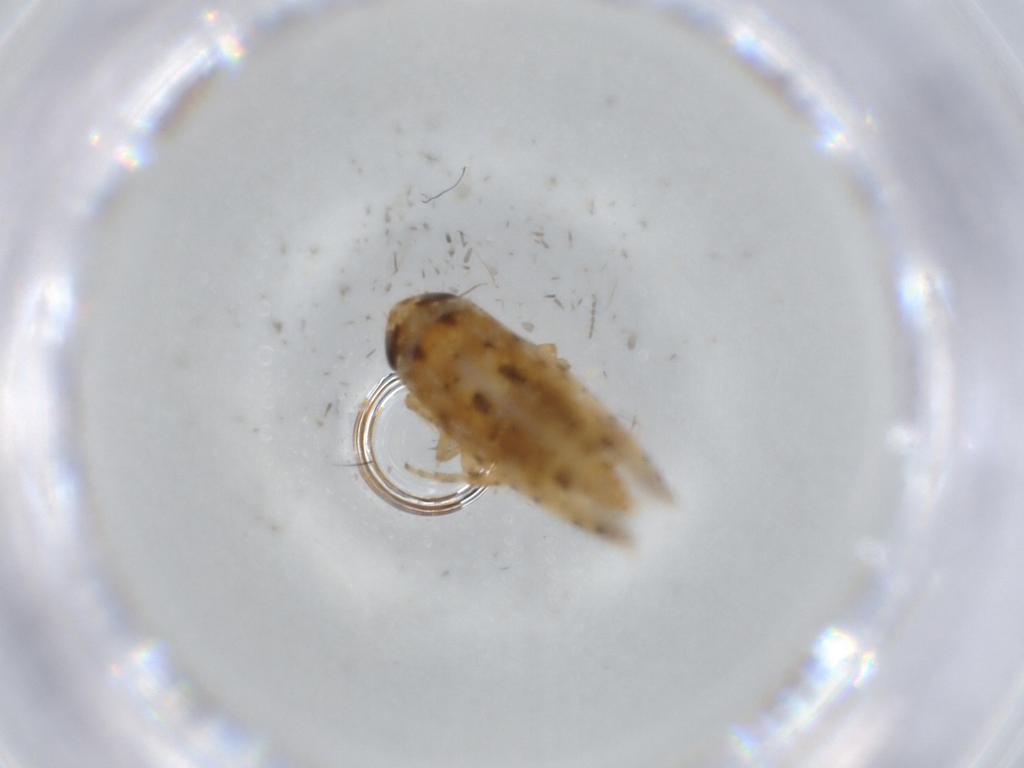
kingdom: Animalia
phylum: Arthropoda
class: Insecta
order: Hemiptera
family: Cicadellidae
